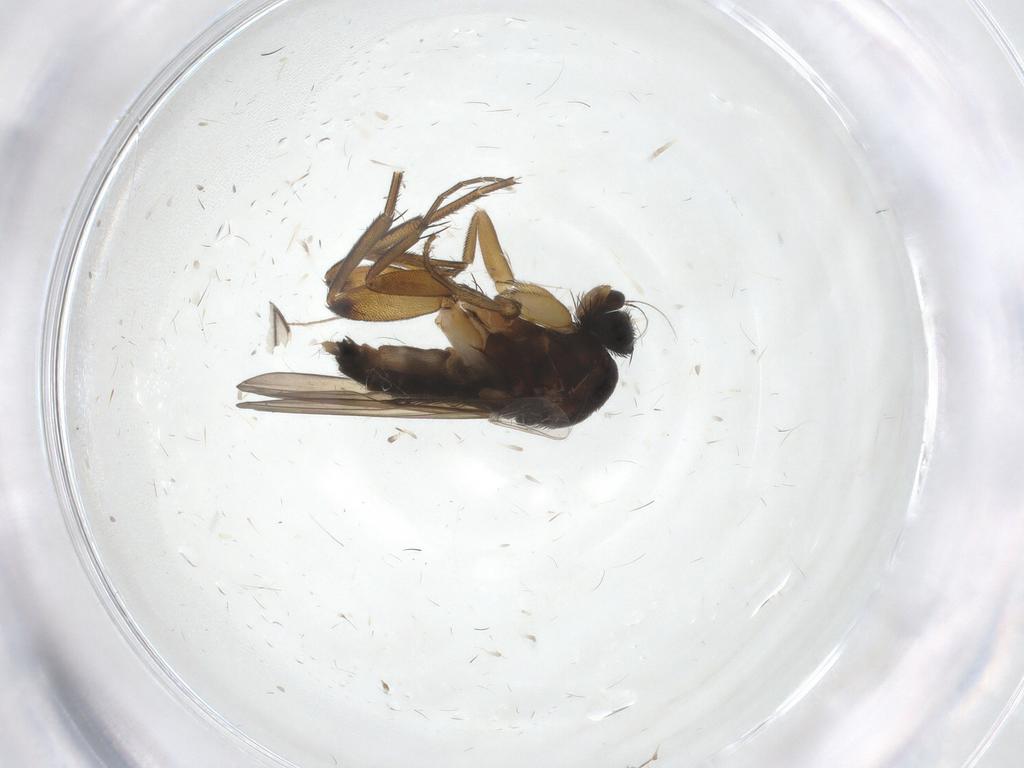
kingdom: Animalia
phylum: Arthropoda
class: Insecta
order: Diptera
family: Phoridae
